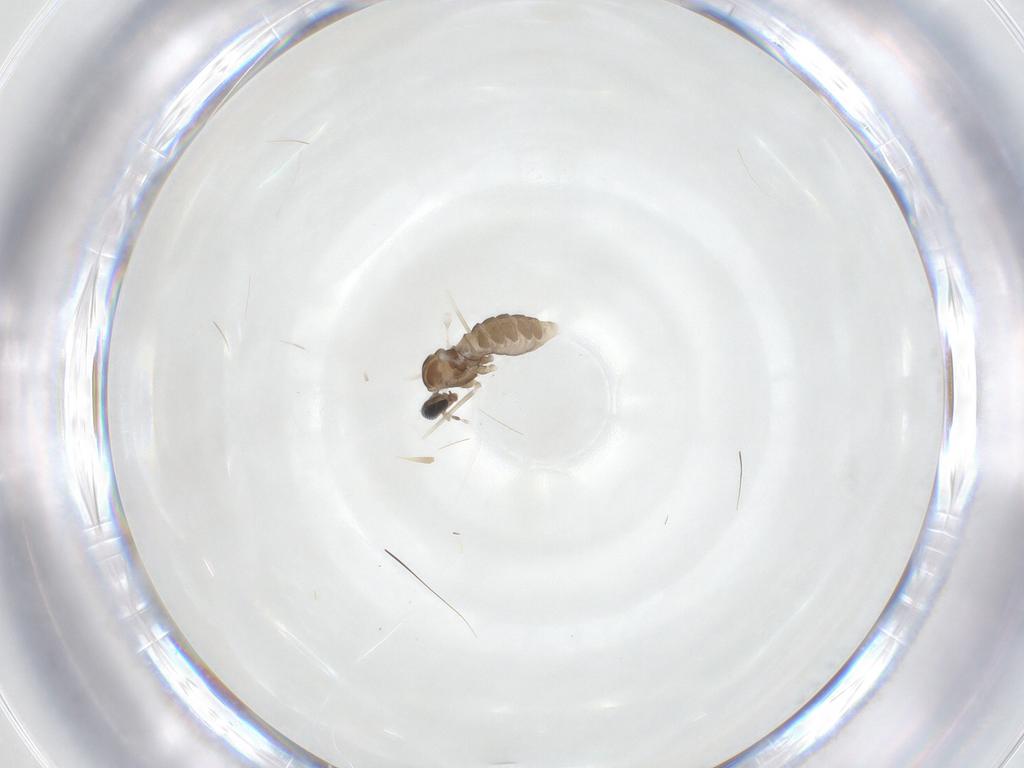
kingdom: Animalia
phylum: Arthropoda
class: Insecta
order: Diptera
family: Cecidomyiidae
